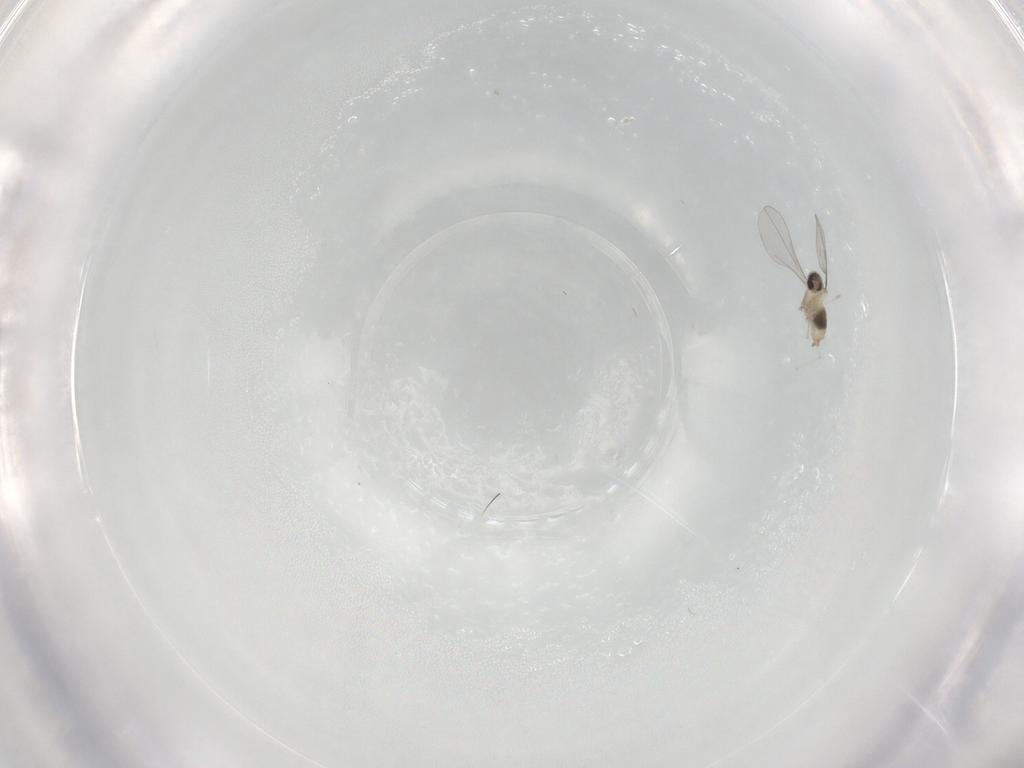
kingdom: Animalia
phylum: Arthropoda
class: Insecta
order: Diptera
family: Cecidomyiidae
